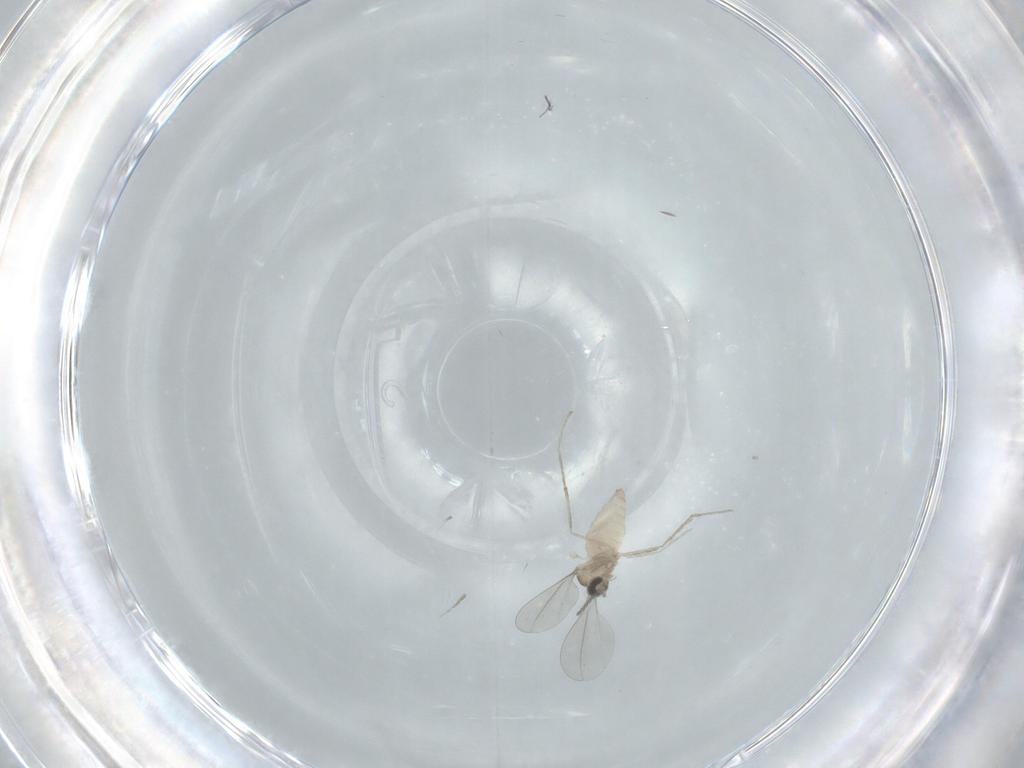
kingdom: Animalia
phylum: Arthropoda
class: Insecta
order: Diptera
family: Cecidomyiidae
